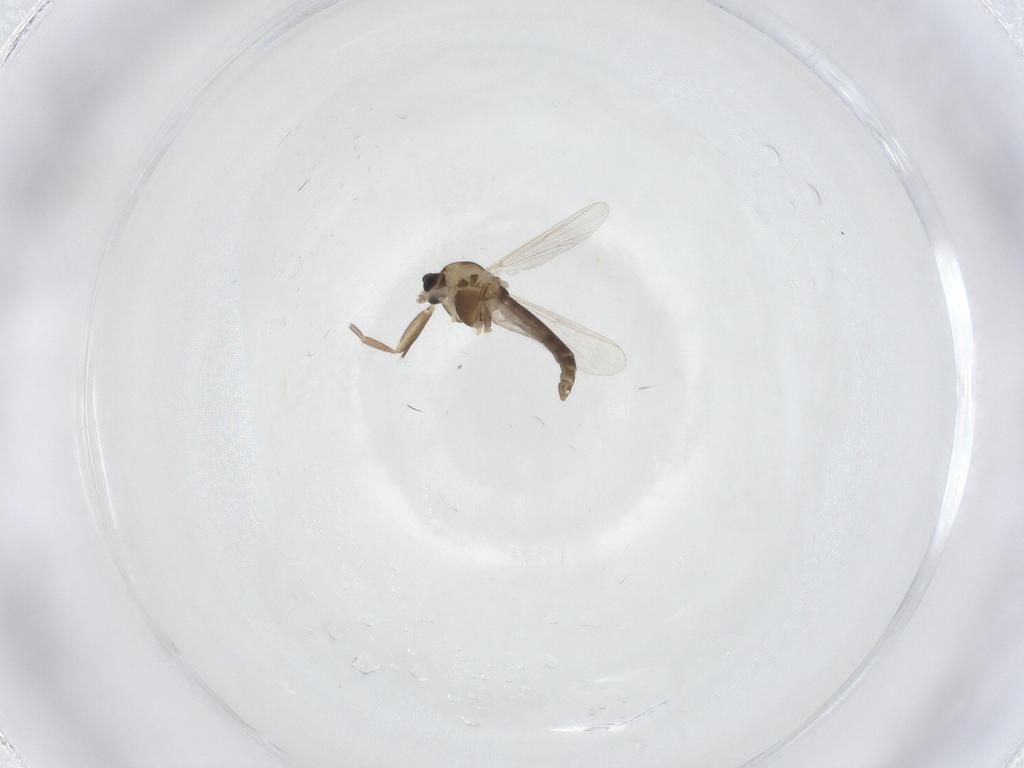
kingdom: Animalia
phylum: Arthropoda
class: Insecta
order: Diptera
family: Chironomidae
